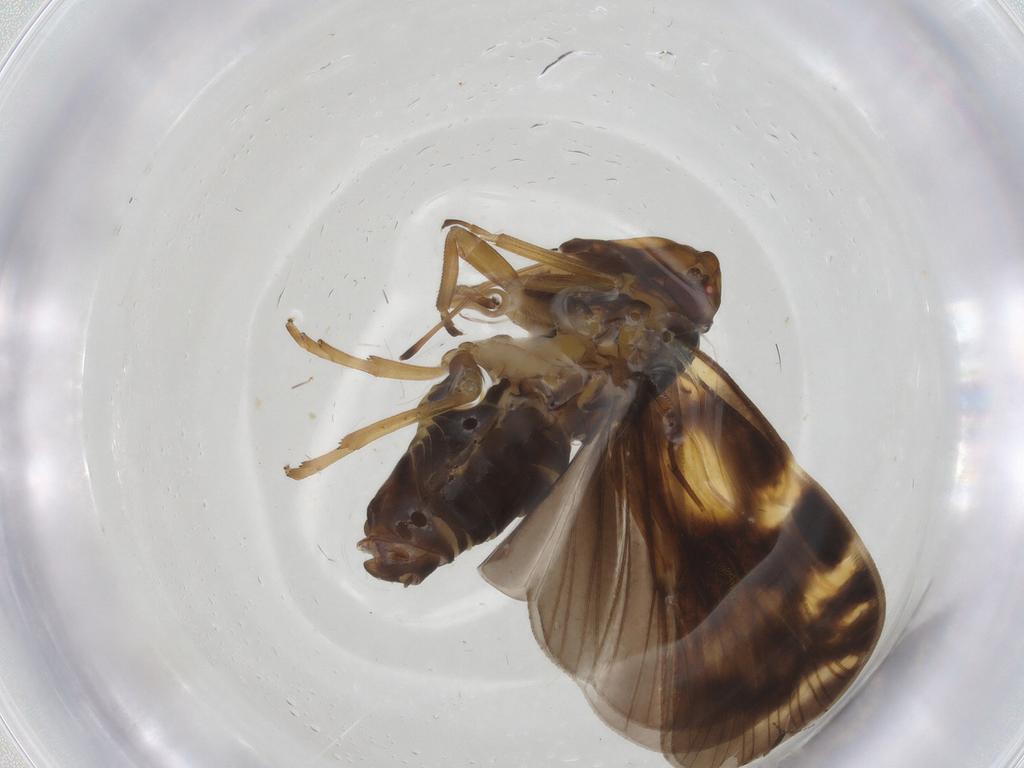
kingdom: Animalia
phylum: Arthropoda
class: Insecta
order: Hemiptera
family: Cixiidae
